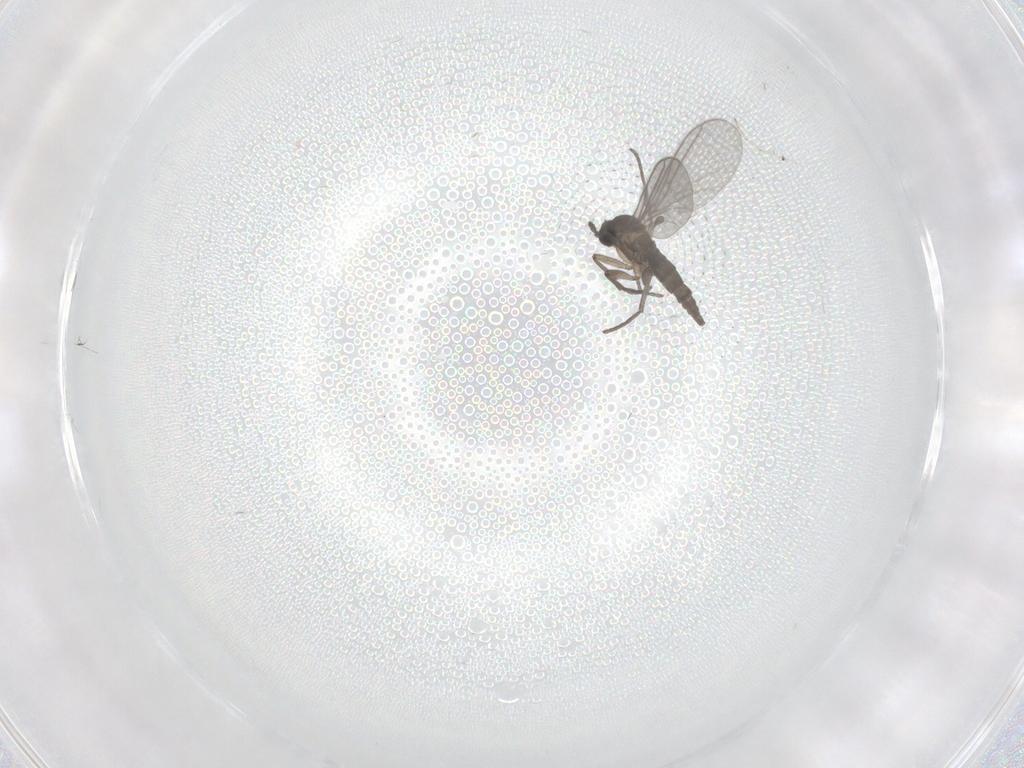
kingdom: Animalia
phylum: Arthropoda
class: Insecta
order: Diptera
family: Sciaridae
